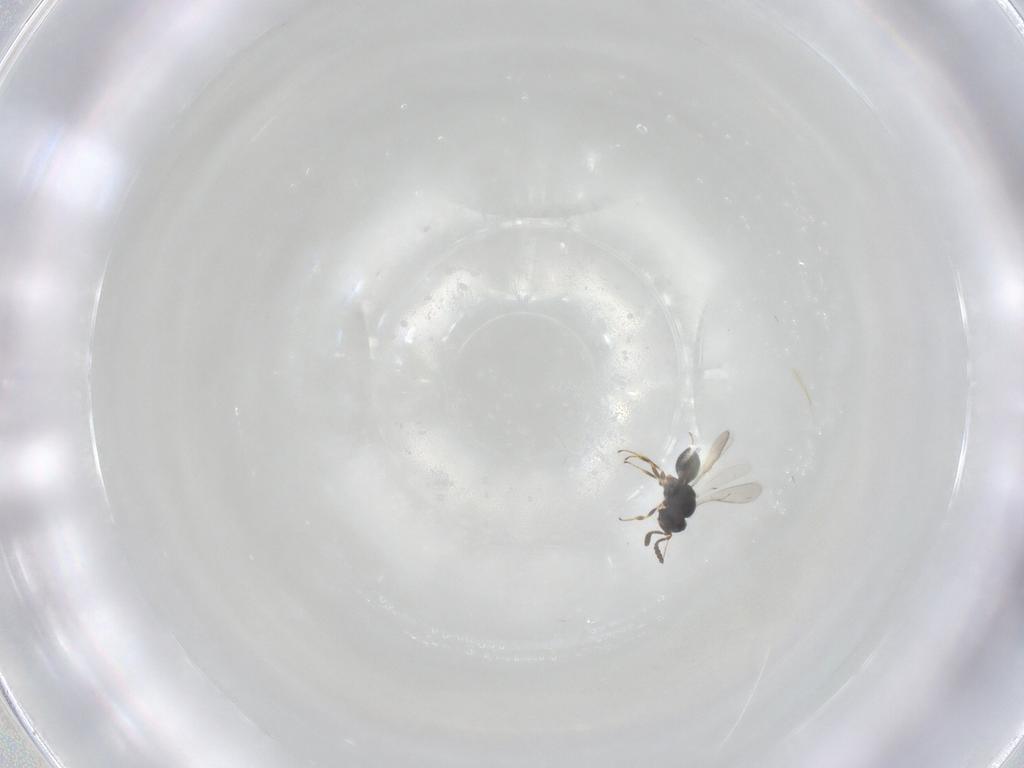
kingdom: Animalia
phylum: Arthropoda
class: Insecta
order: Hymenoptera
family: Scelionidae
